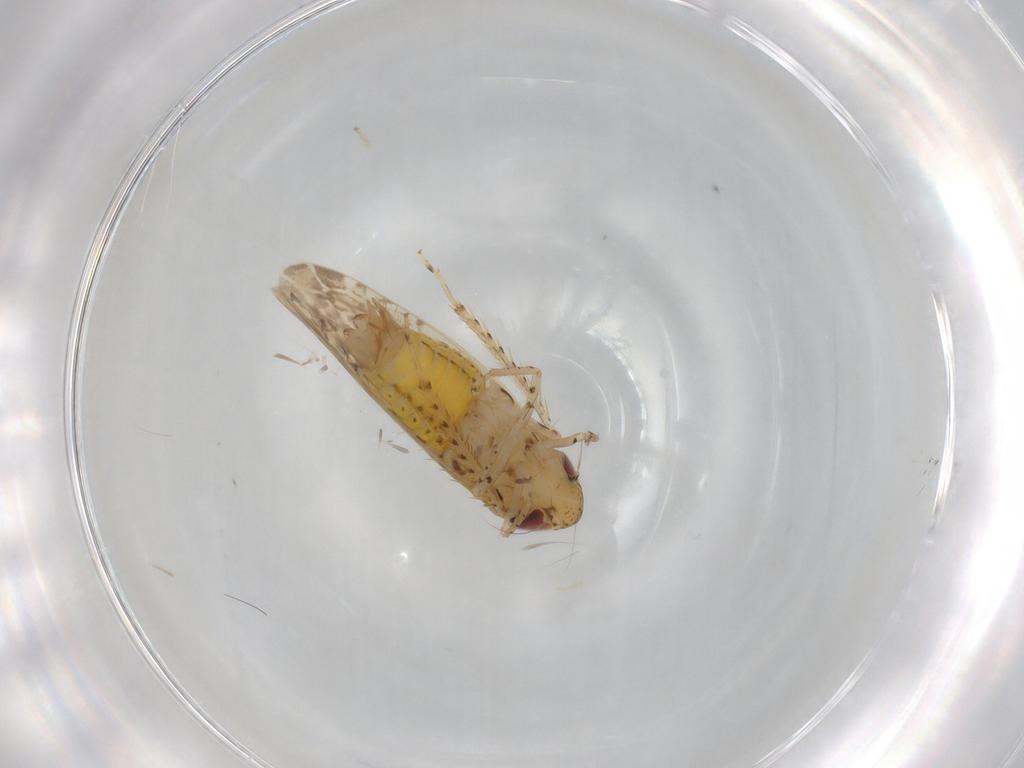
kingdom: Animalia
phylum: Arthropoda
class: Insecta
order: Hemiptera
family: Cicadellidae
